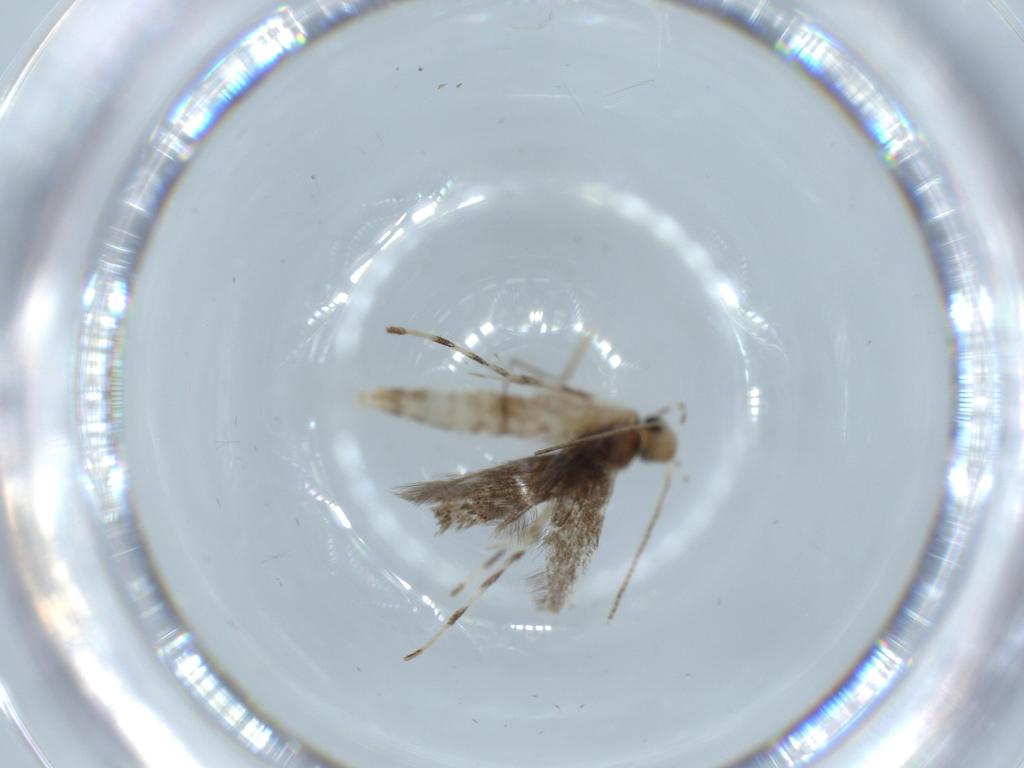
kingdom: Animalia
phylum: Arthropoda
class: Insecta
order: Lepidoptera
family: Gracillariidae
